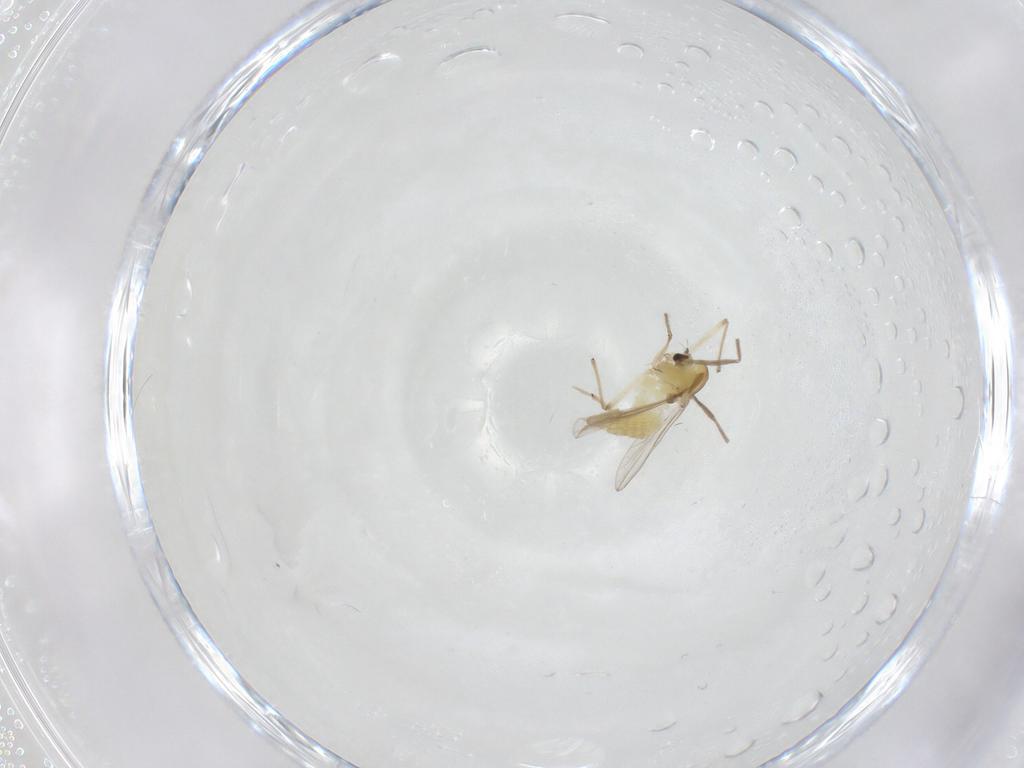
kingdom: Animalia
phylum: Arthropoda
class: Insecta
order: Diptera
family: Chironomidae
